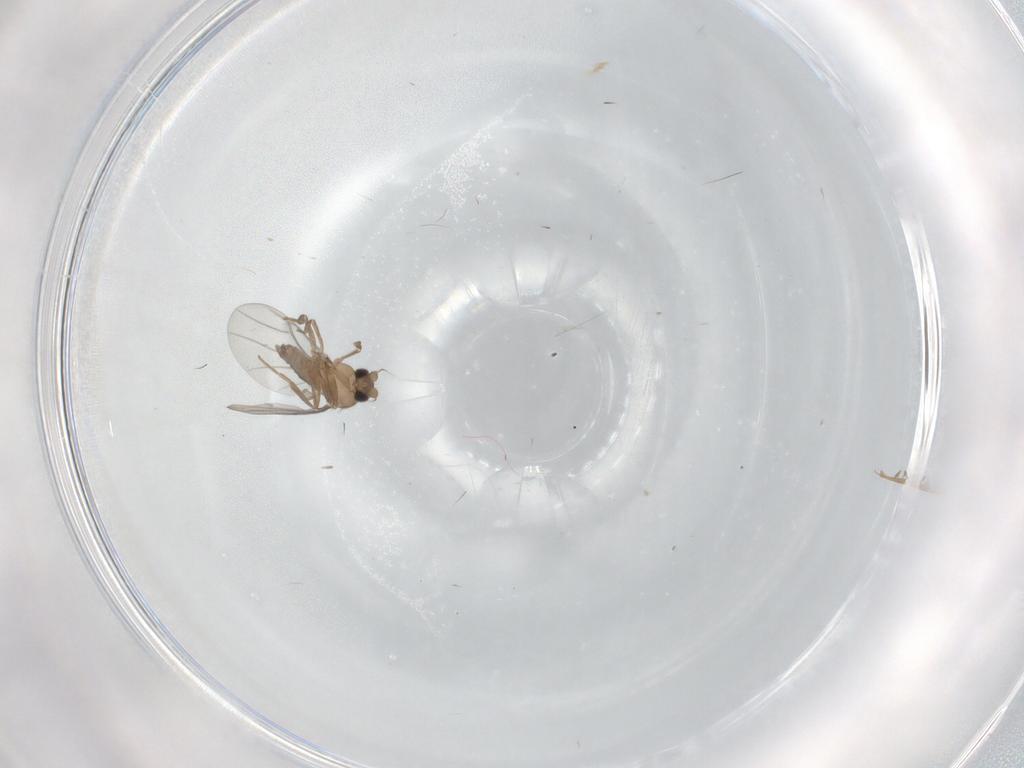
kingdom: Animalia
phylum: Arthropoda
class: Insecta
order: Diptera
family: Ceratopogonidae
